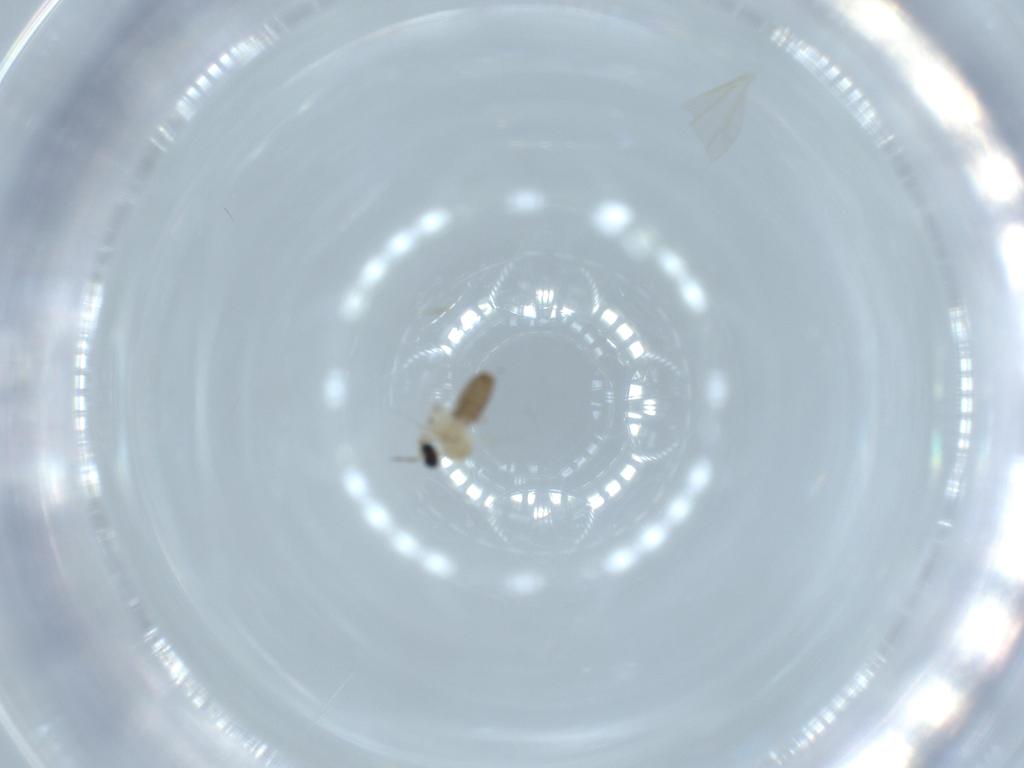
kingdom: Animalia
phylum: Arthropoda
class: Insecta
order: Diptera
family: Cecidomyiidae
